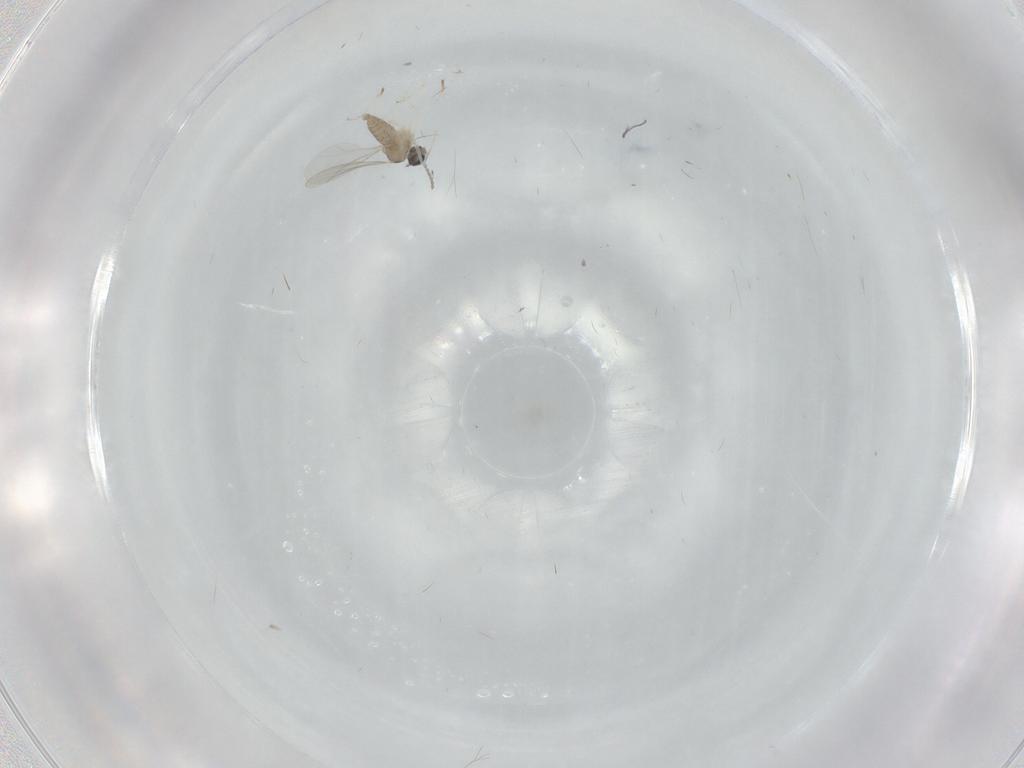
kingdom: Animalia
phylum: Arthropoda
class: Insecta
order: Diptera
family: Cecidomyiidae
